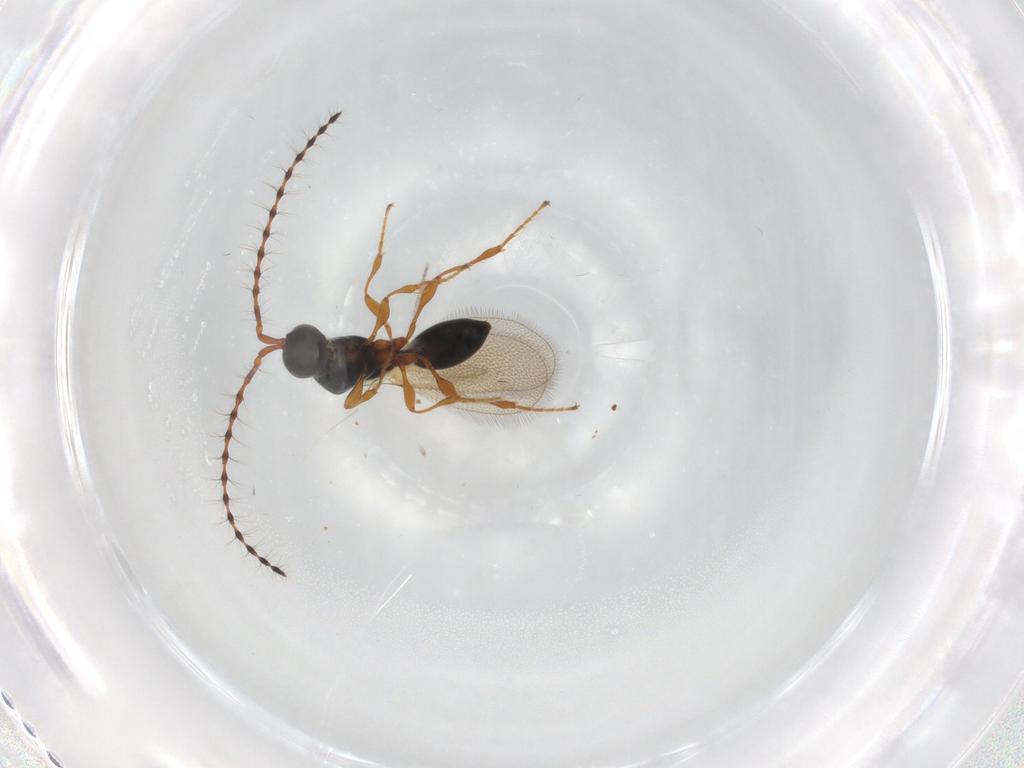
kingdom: Animalia
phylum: Arthropoda
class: Insecta
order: Hymenoptera
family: Diapriidae
